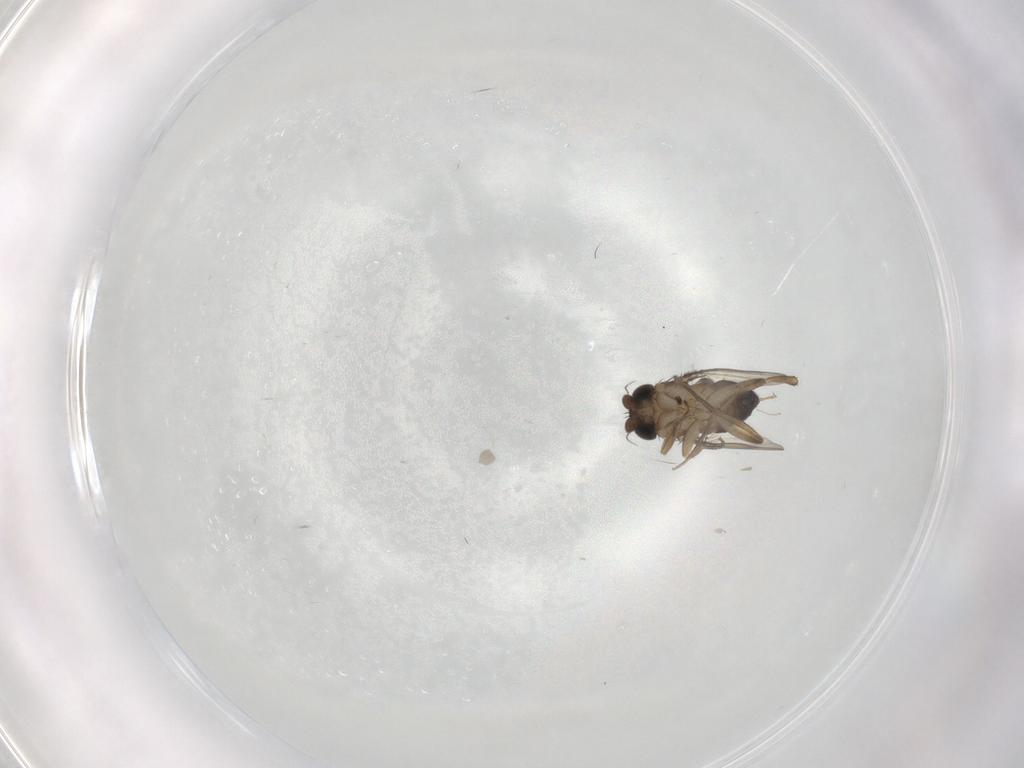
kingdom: Animalia
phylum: Arthropoda
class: Insecta
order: Diptera
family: Phoridae
